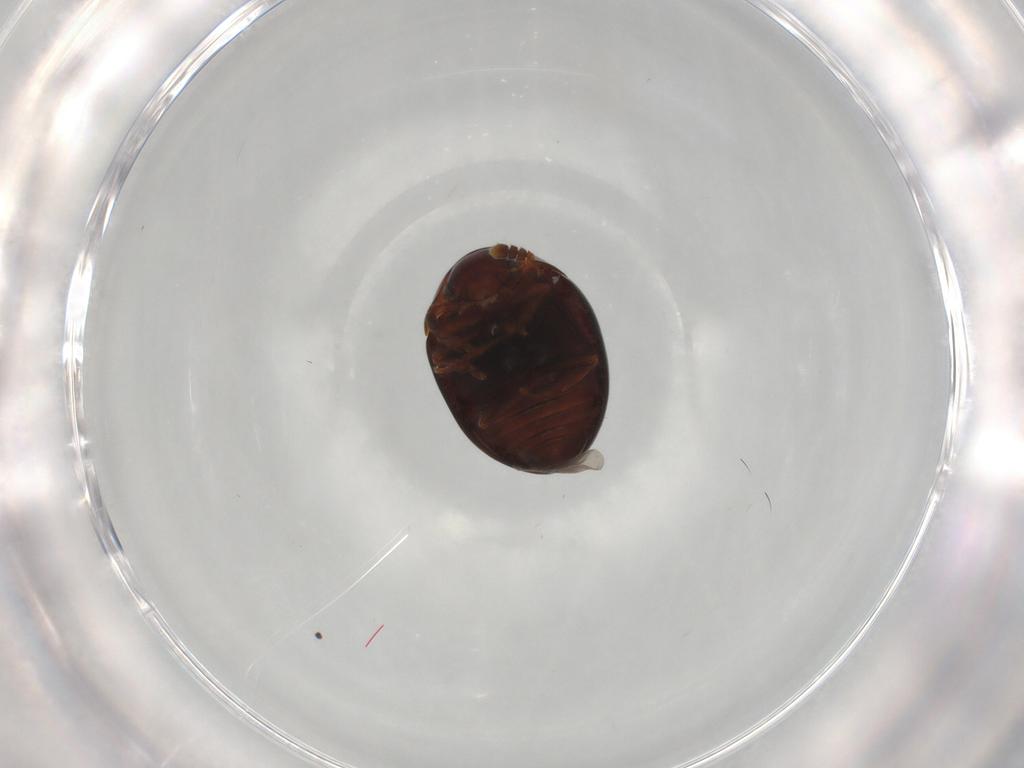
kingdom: Animalia
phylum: Arthropoda
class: Insecta
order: Coleoptera
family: Leiodidae
